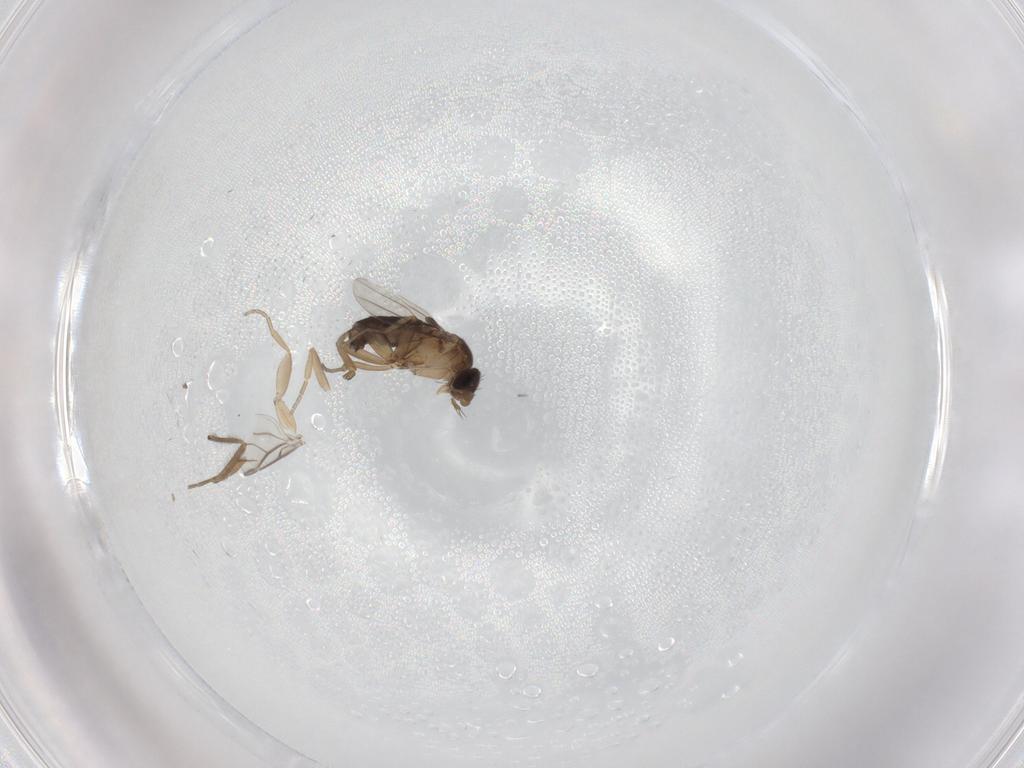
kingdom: Animalia
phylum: Arthropoda
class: Insecta
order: Diptera
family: Phoridae
